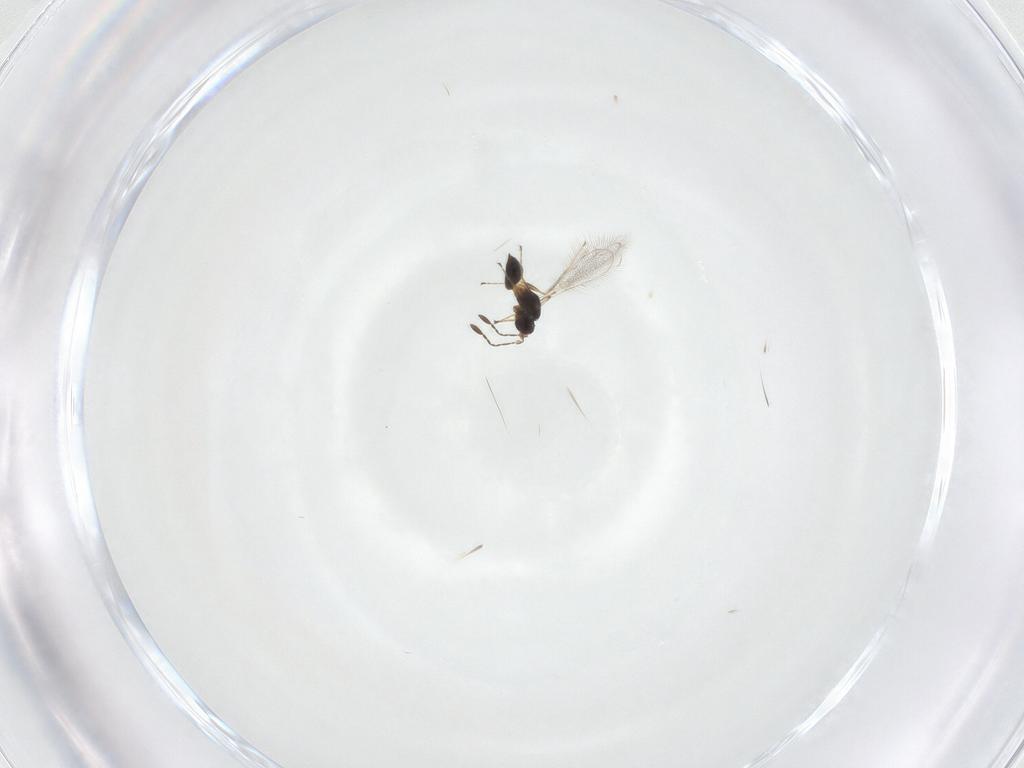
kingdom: Animalia
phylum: Arthropoda
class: Insecta
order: Hymenoptera
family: Mymaridae
